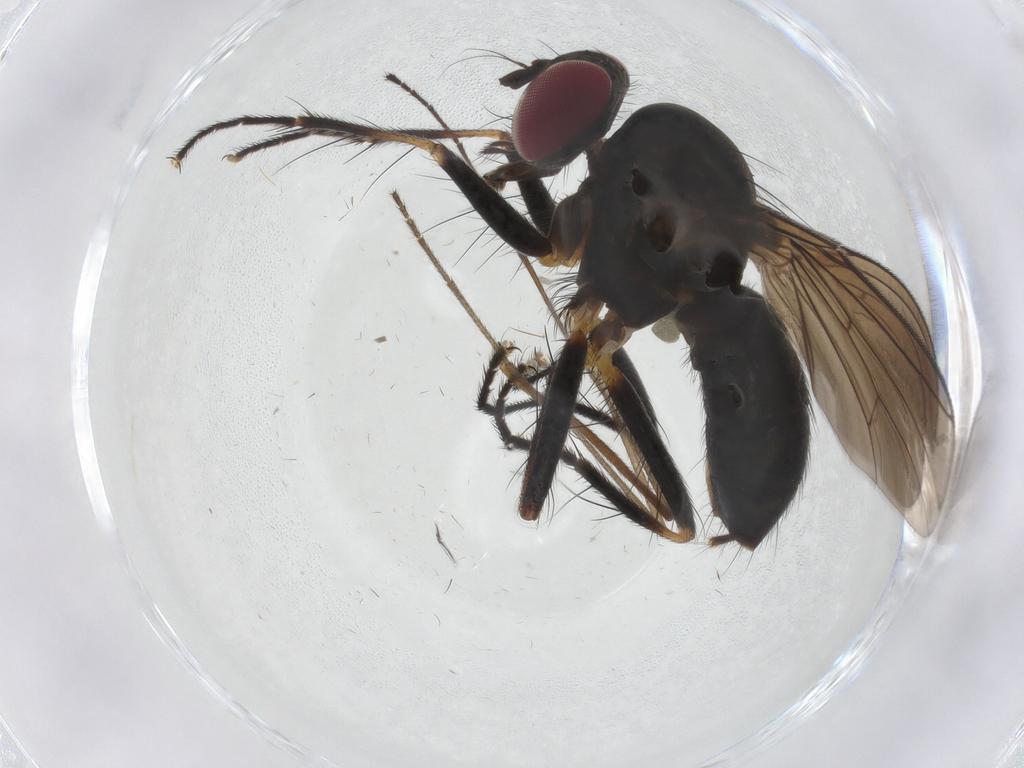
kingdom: Animalia
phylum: Arthropoda
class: Insecta
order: Diptera
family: Anthomyiidae
